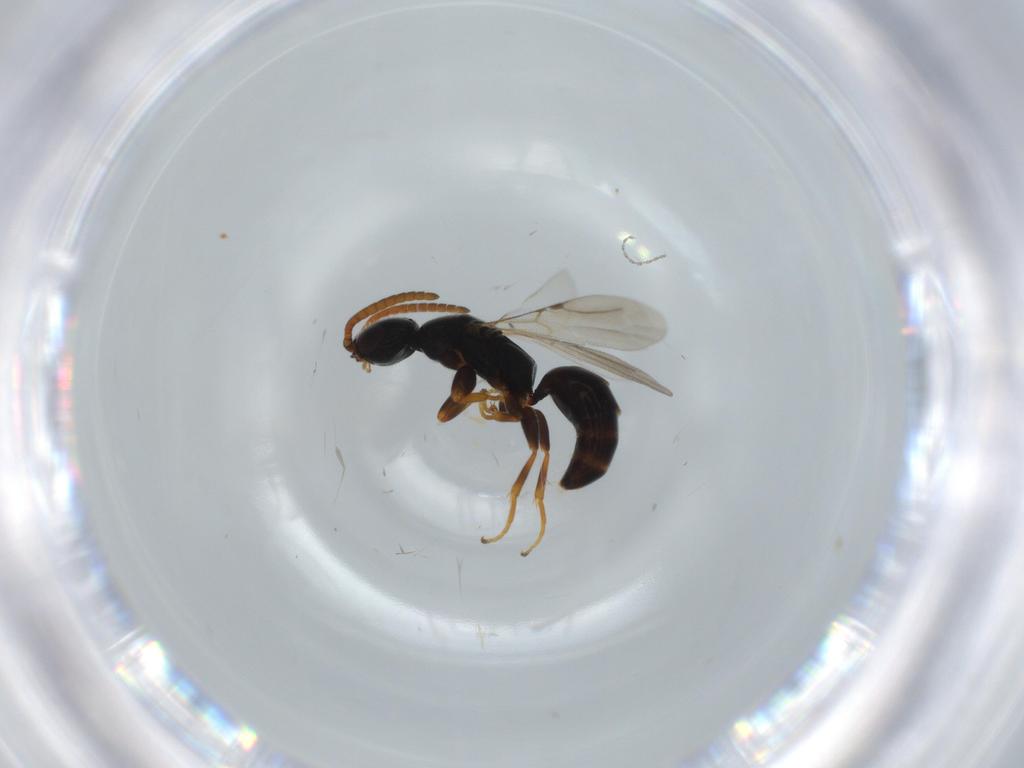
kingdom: Animalia
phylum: Arthropoda
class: Insecta
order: Hymenoptera
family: Bethylidae
